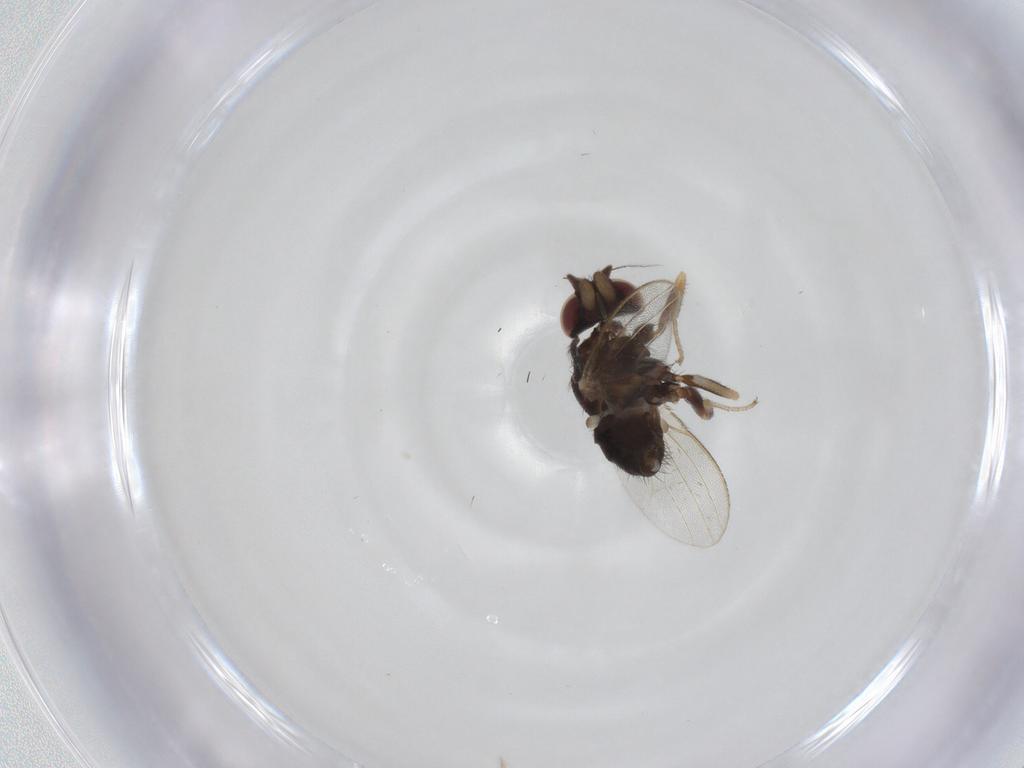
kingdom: Animalia
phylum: Arthropoda
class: Insecta
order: Diptera
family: Milichiidae
